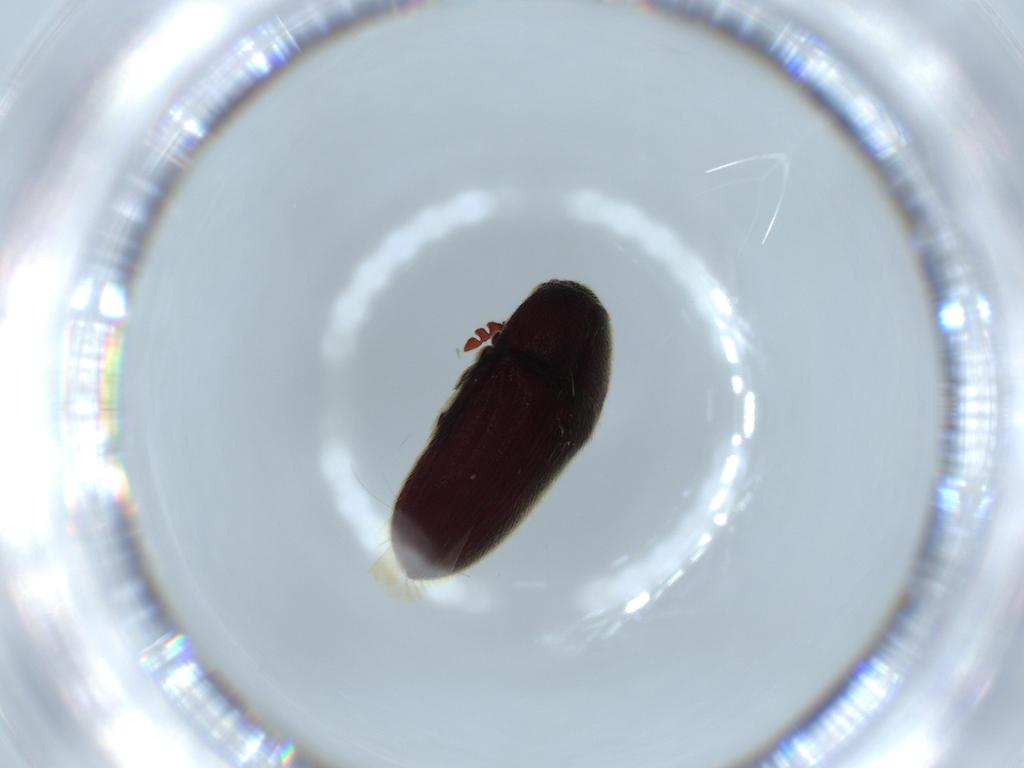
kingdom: Animalia
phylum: Arthropoda
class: Insecta
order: Coleoptera
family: Throscidae
